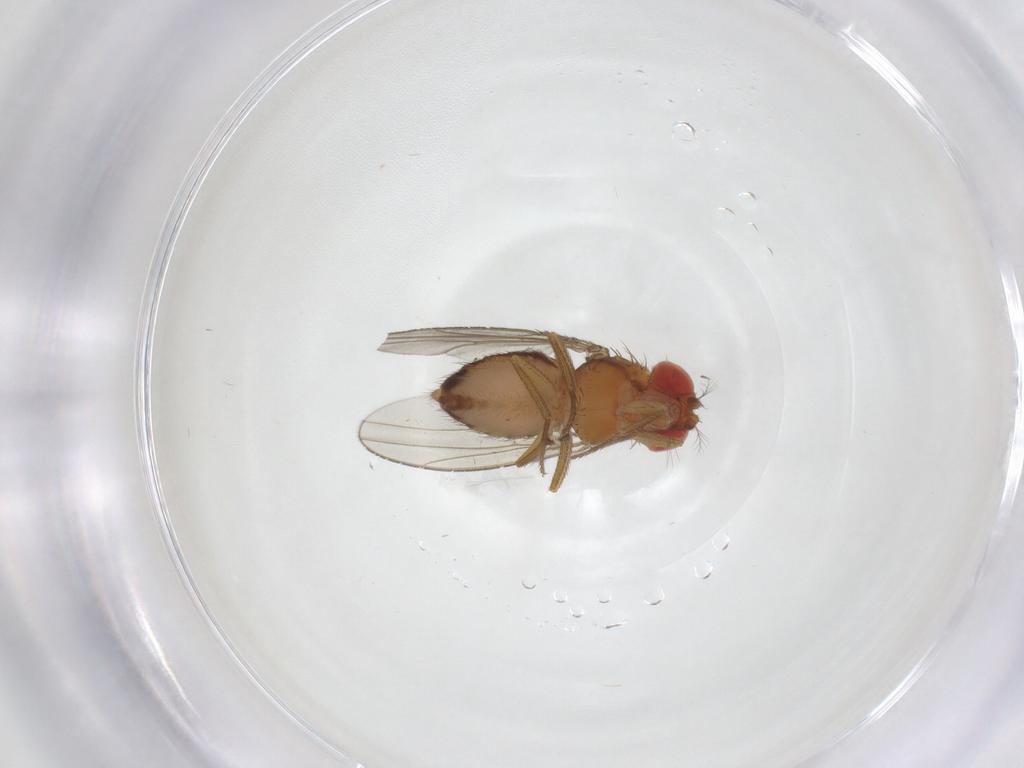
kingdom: Animalia
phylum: Arthropoda
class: Insecta
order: Diptera
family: Drosophilidae
